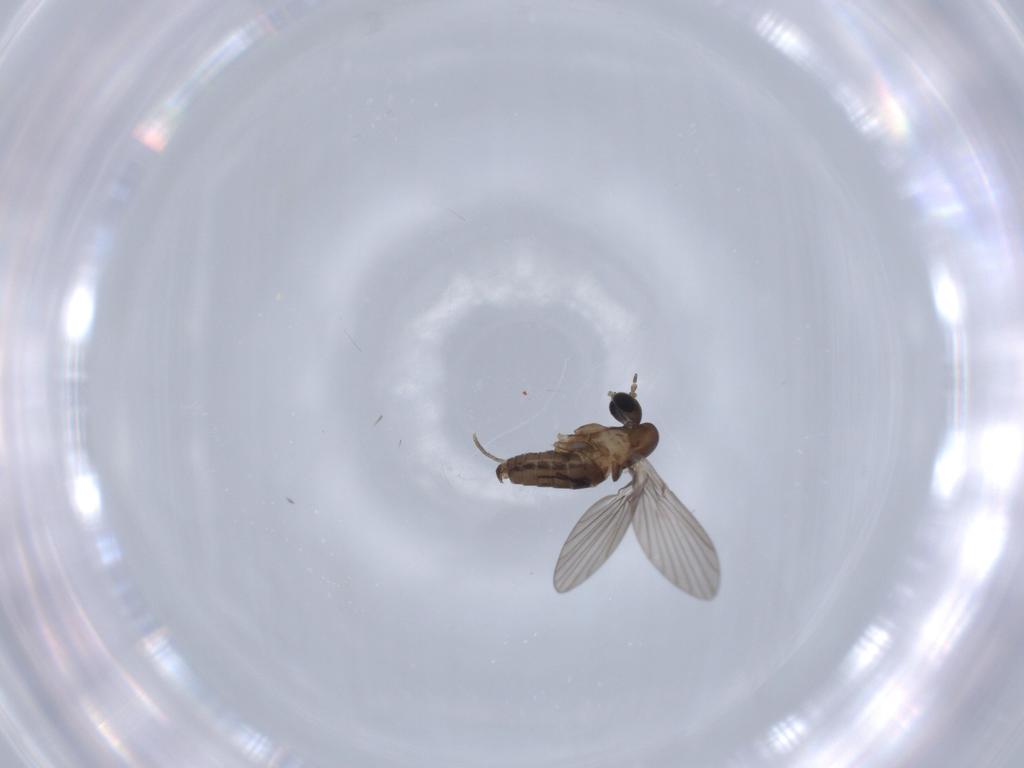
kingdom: Animalia
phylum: Arthropoda
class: Insecta
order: Diptera
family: Psychodidae
